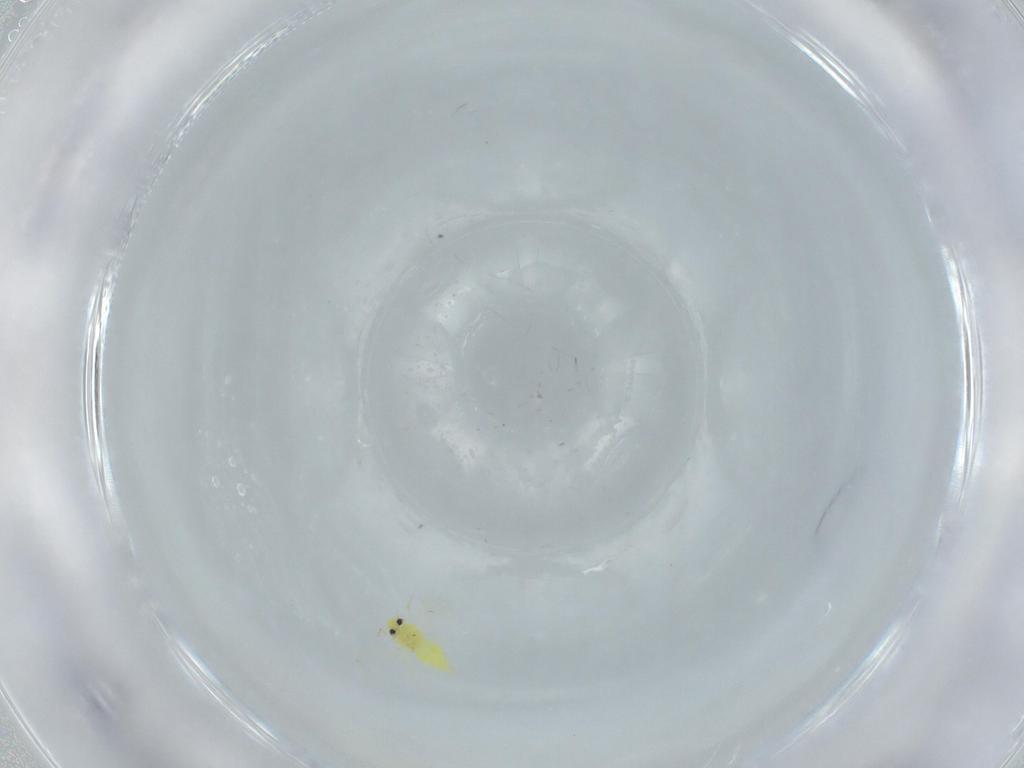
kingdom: Animalia
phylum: Arthropoda
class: Insecta
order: Hemiptera
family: Aleyrodidae
